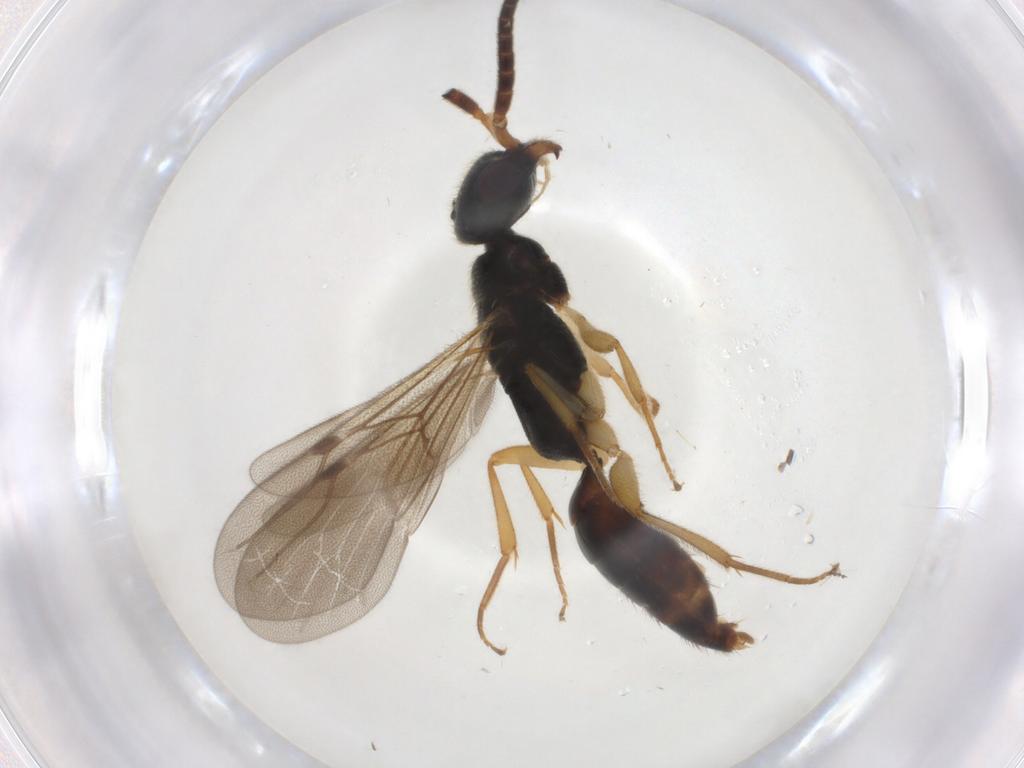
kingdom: Animalia
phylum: Arthropoda
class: Insecta
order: Hymenoptera
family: Bethylidae
